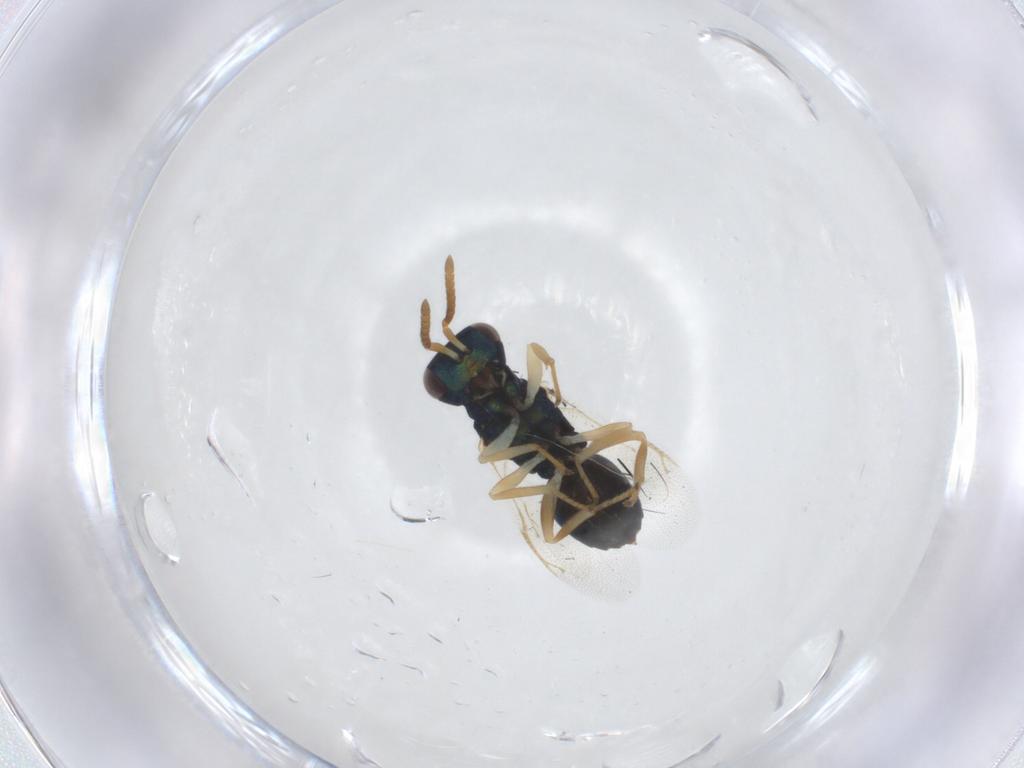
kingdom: Animalia
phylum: Arthropoda
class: Insecta
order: Hymenoptera
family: Pteromalidae
